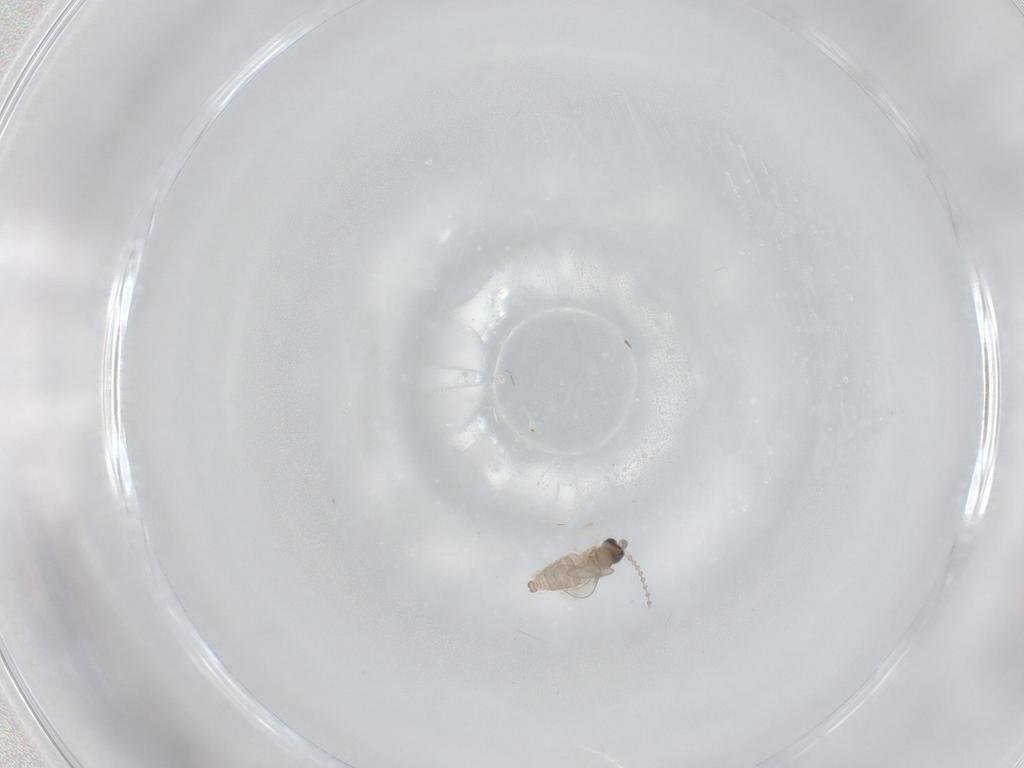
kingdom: Animalia
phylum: Arthropoda
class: Insecta
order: Diptera
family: Cecidomyiidae
